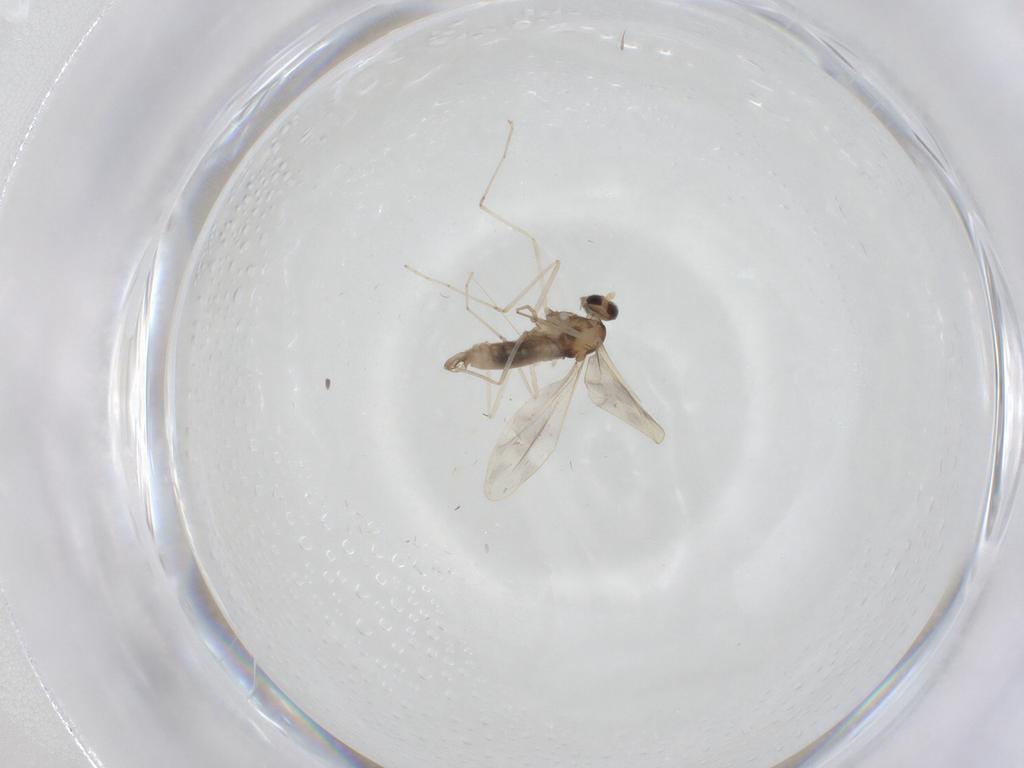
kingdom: Animalia
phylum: Arthropoda
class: Insecta
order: Diptera
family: Cecidomyiidae
